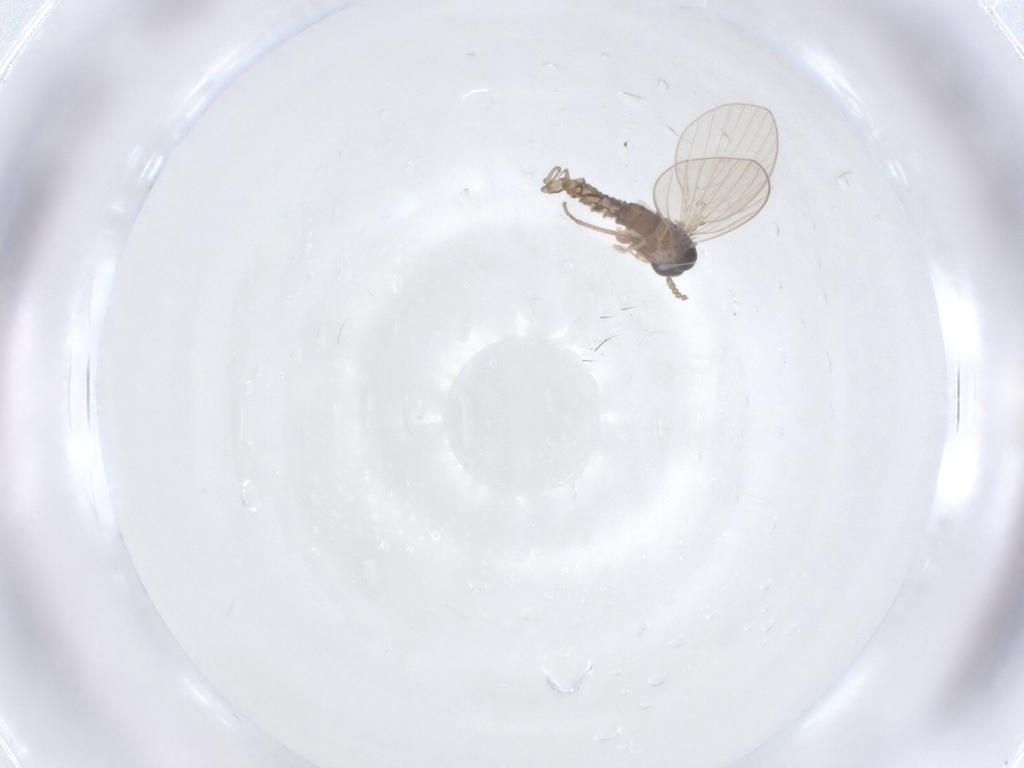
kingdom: Animalia
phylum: Arthropoda
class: Insecta
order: Diptera
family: Psychodidae
